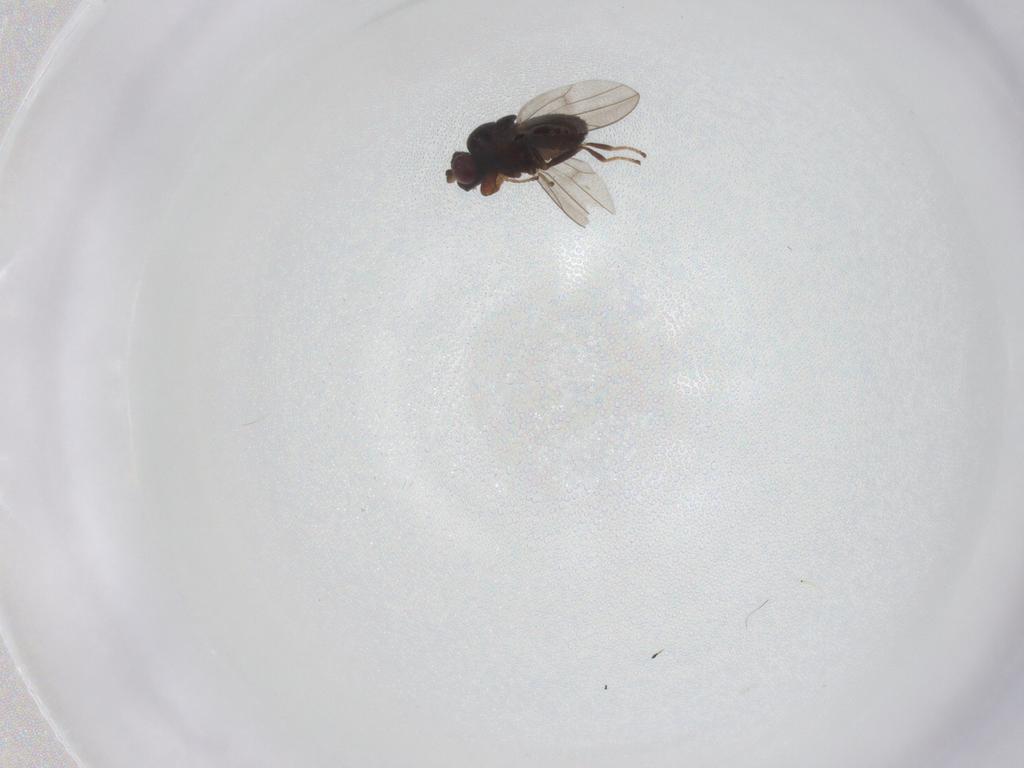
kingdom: Animalia
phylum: Arthropoda
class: Insecta
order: Diptera
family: Ephydridae
